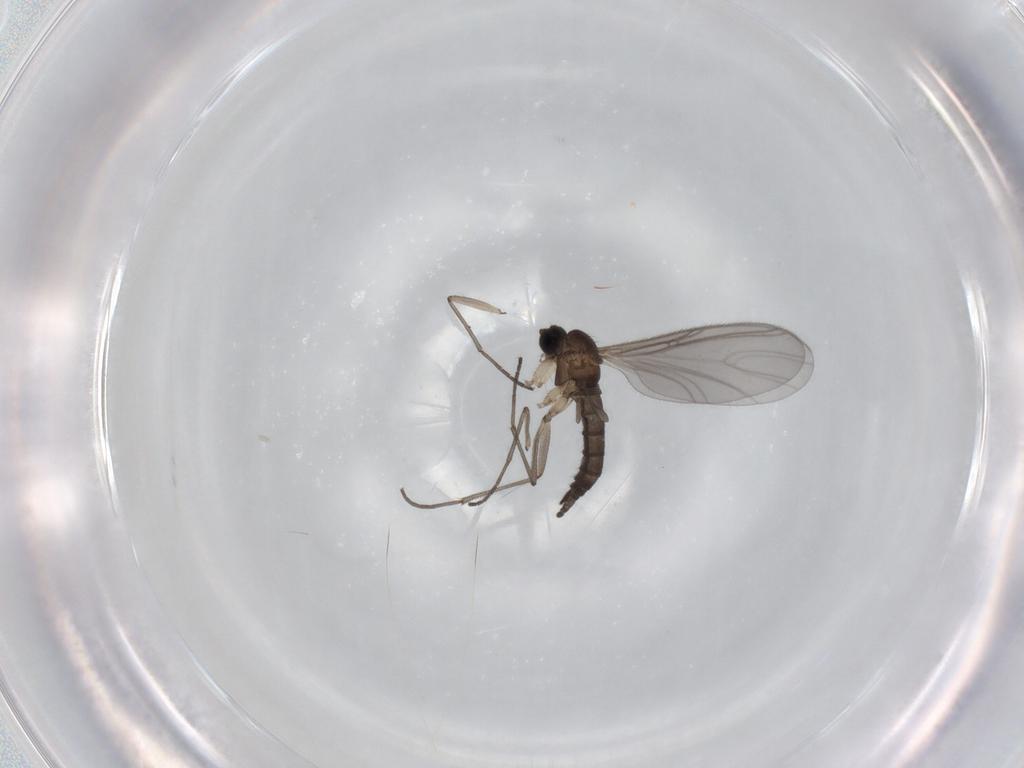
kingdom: Animalia
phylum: Arthropoda
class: Insecta
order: Diptera
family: Sciaridae
